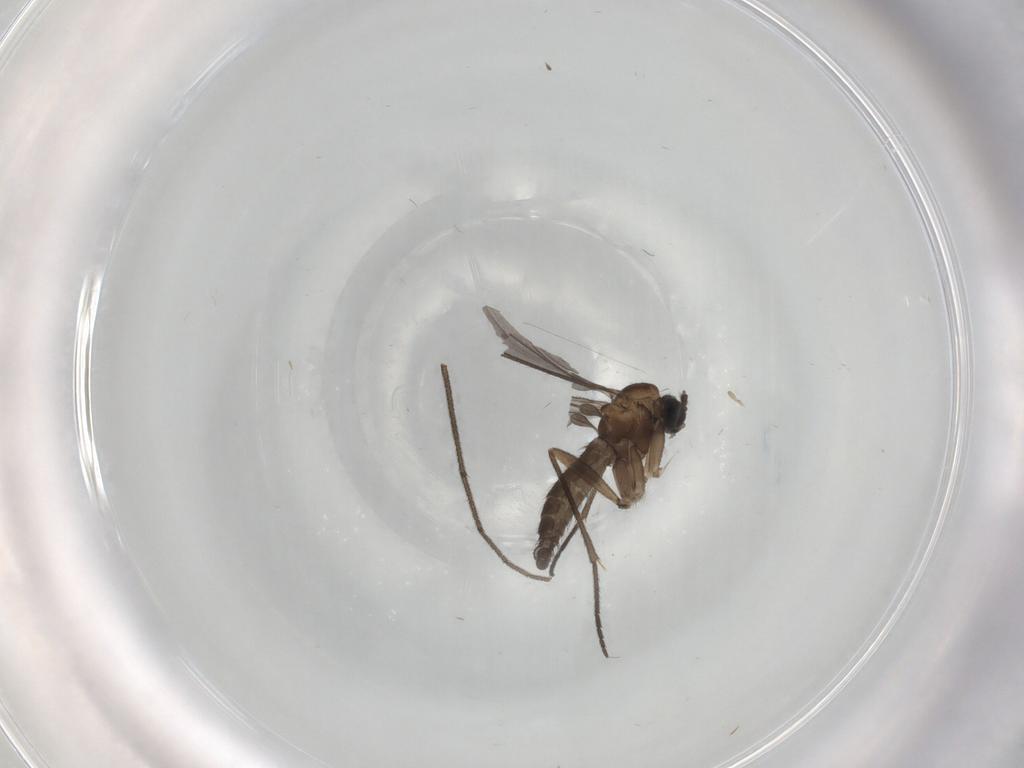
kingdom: Animalia
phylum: Arthropoda
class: Insecta
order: Diptera
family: Sciaridae
